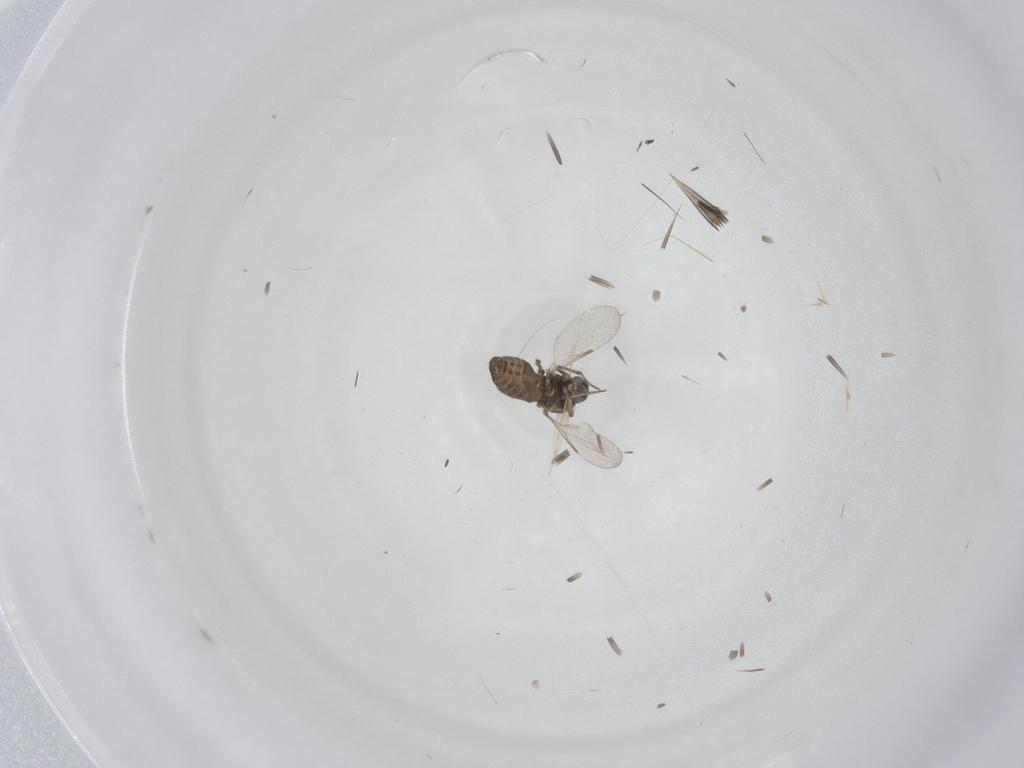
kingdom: Animalia
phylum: Arthropoda
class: Insecta
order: Diptera
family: Ceratopogonidae
